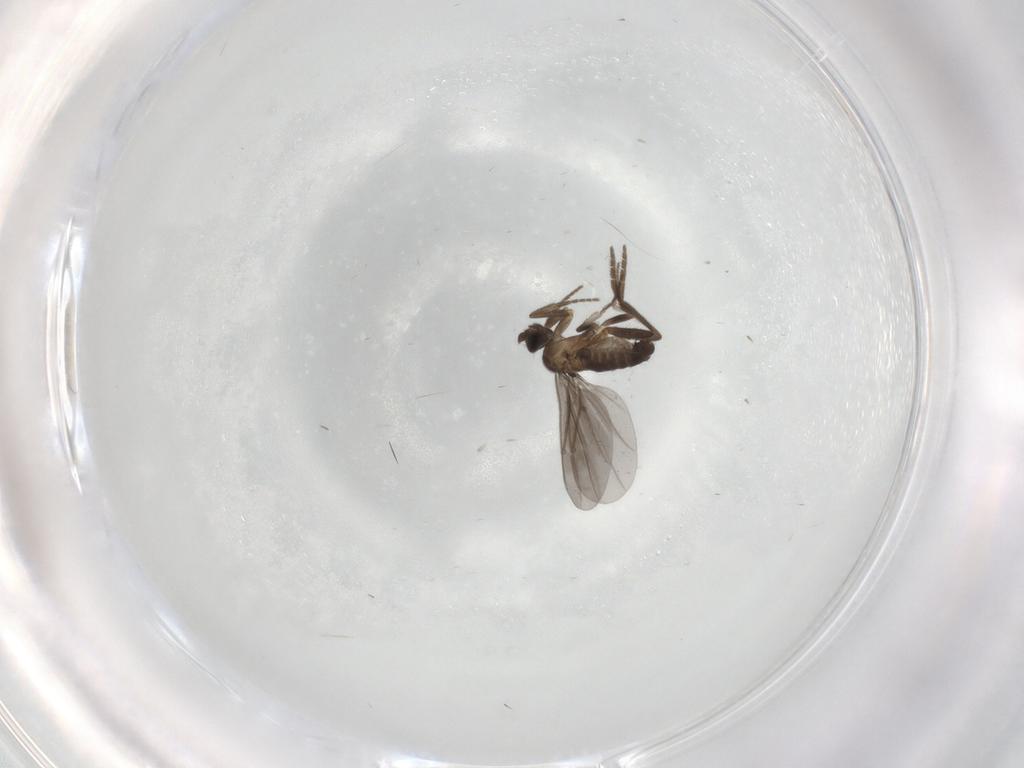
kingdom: Animalia
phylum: Arthropoda
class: Insecta
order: Diptera
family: Phoridae
